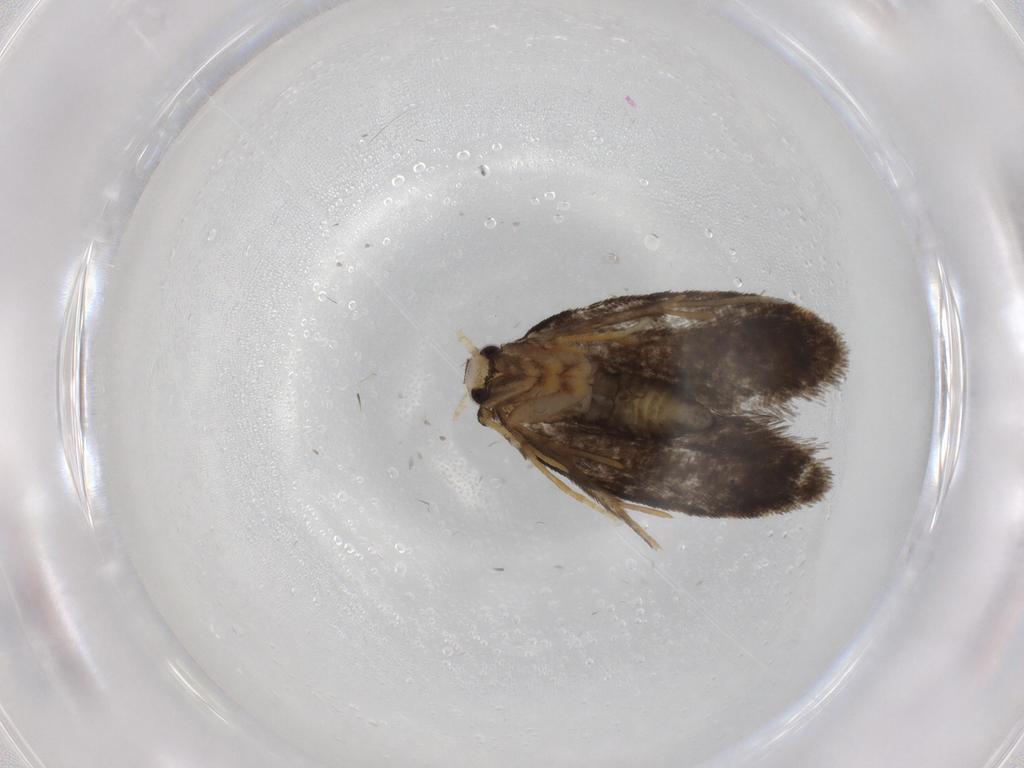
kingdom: Animalia
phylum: Arthropoda
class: Insecta
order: Lepidoptera
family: Psychidae
